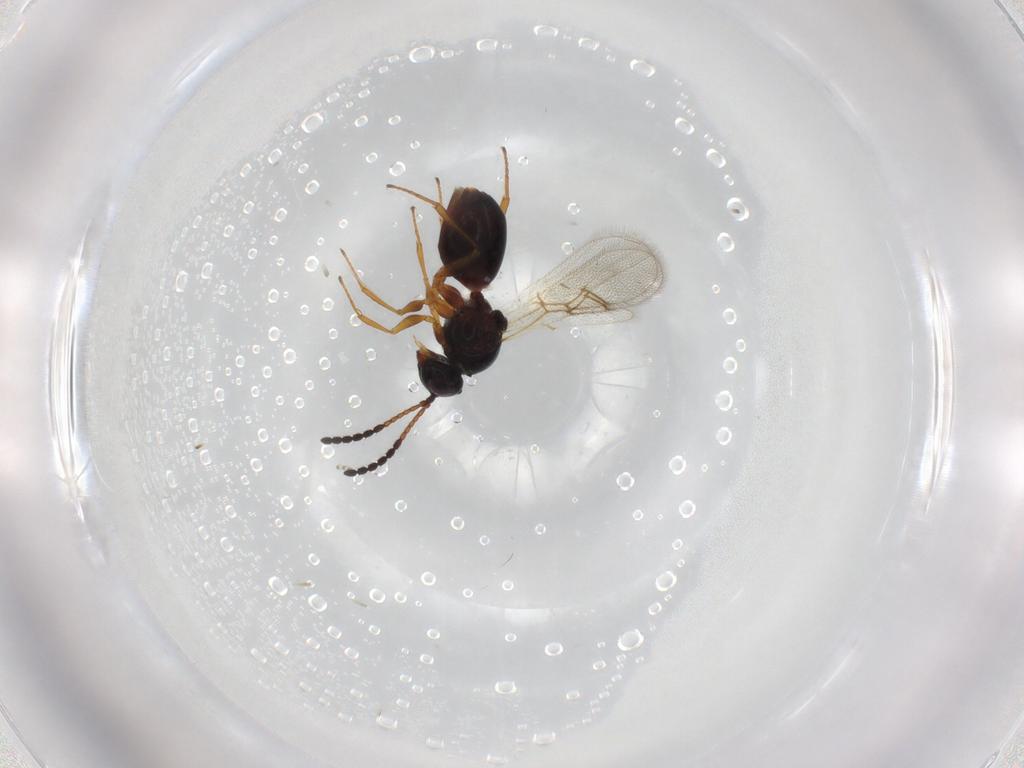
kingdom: Animalia
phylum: Arthropoda
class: Insecta
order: Hymenoptera
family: Figitidae
